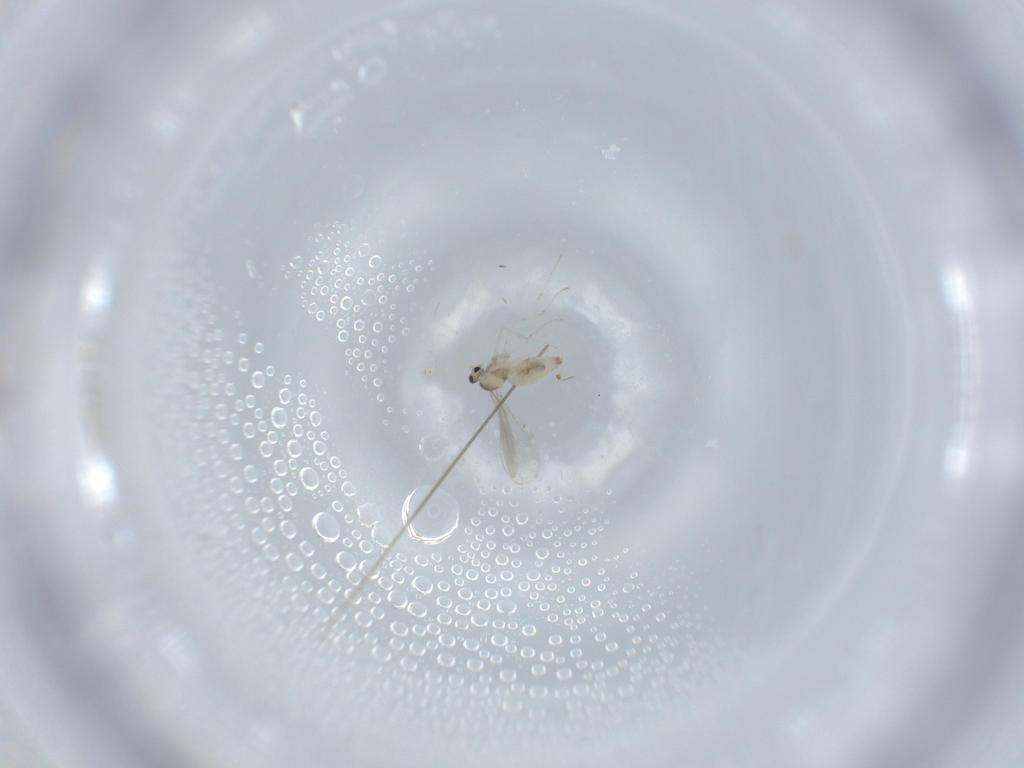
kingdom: Animalia
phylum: Arthropoda
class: Insecta
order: Diptera
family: Cecidomyiidae
